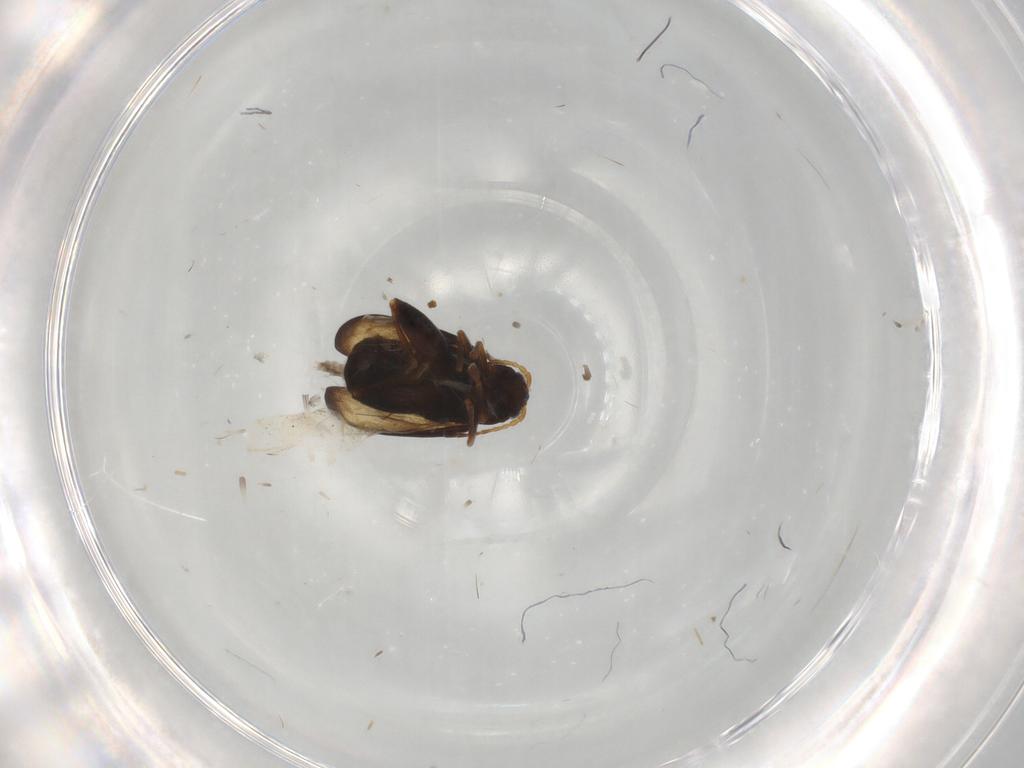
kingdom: Animalia
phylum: Arthropoda
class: Insecta
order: Coleoptera
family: Chrysomelidae
